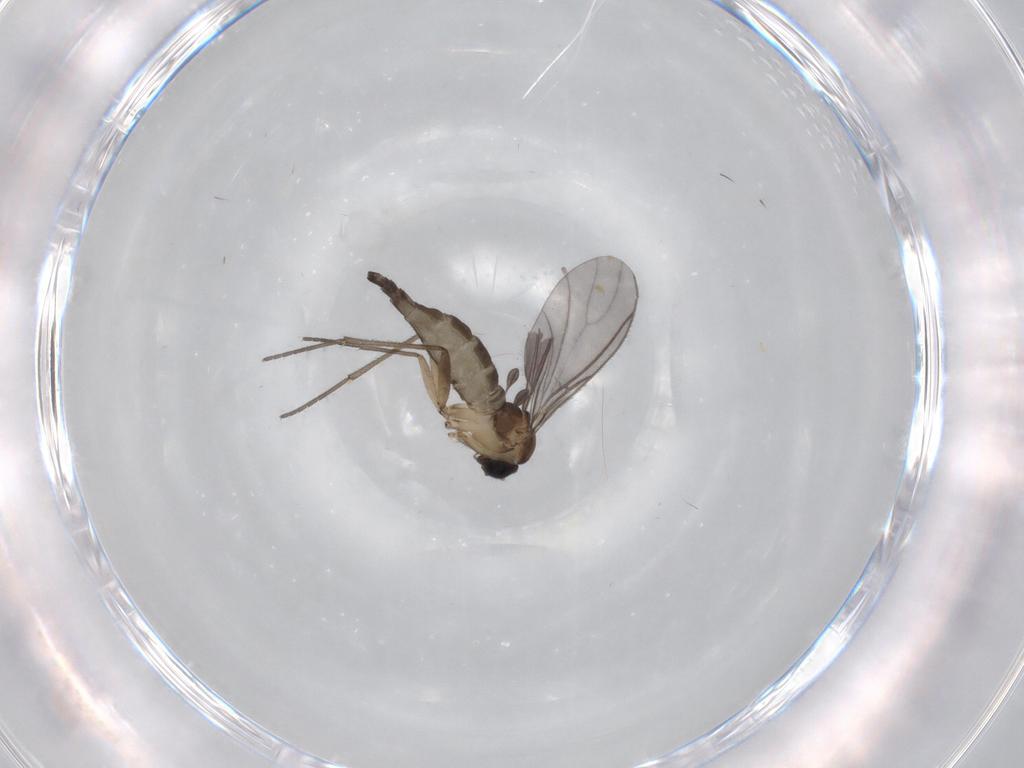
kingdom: Animalia
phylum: Arthropoda
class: Insecta
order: Diptera
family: Sciaridae
